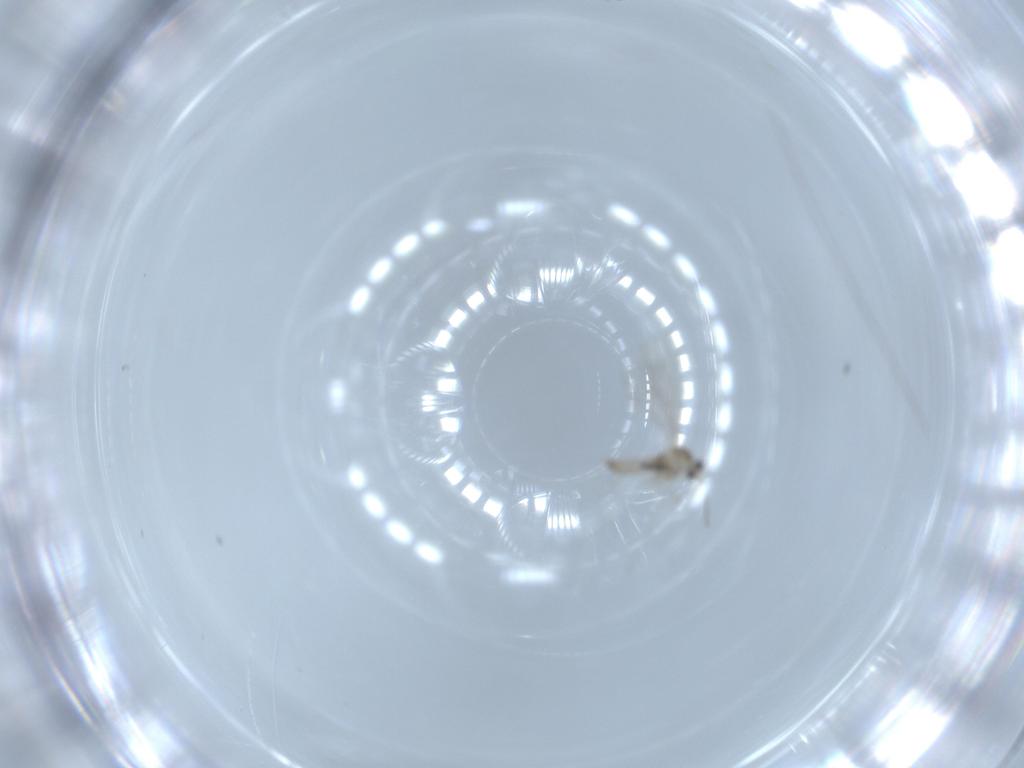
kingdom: Animalia
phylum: Arthropoda
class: Insecta
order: Diptera
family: Cecidomyiidae
